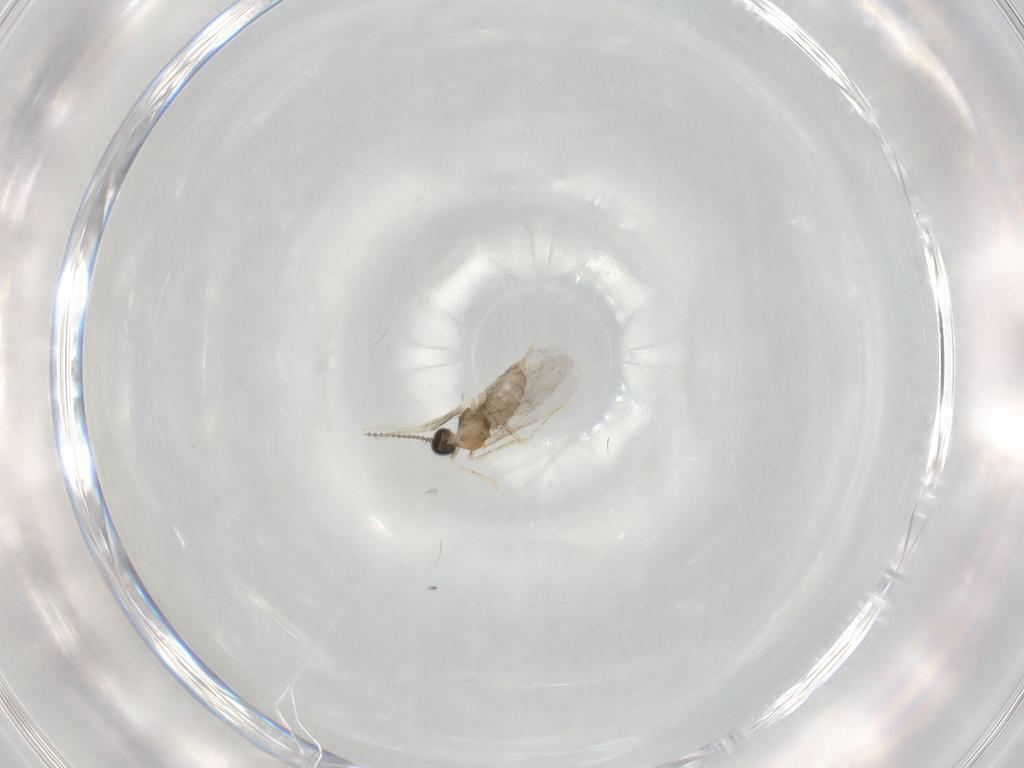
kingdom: Animalia
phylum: Arthropoda
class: Insecta
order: Diptera
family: Cecidomyiidae
